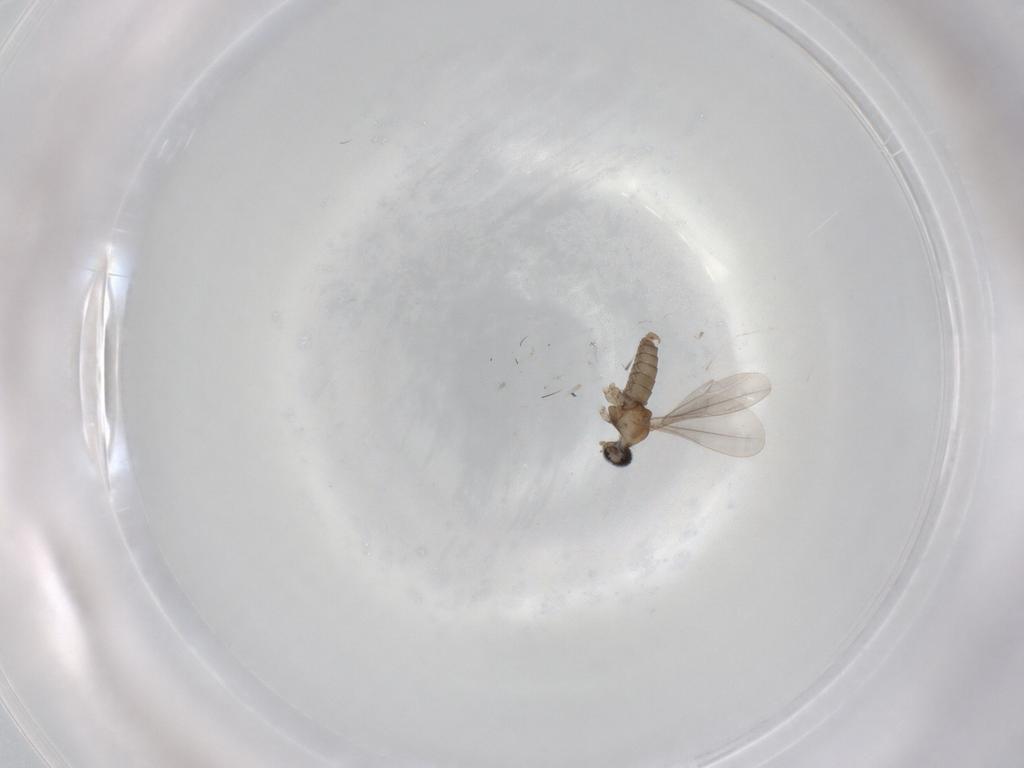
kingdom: Animalia
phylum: Arthropoda
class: Insecta
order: Diptera
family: Cecidomyiidae
